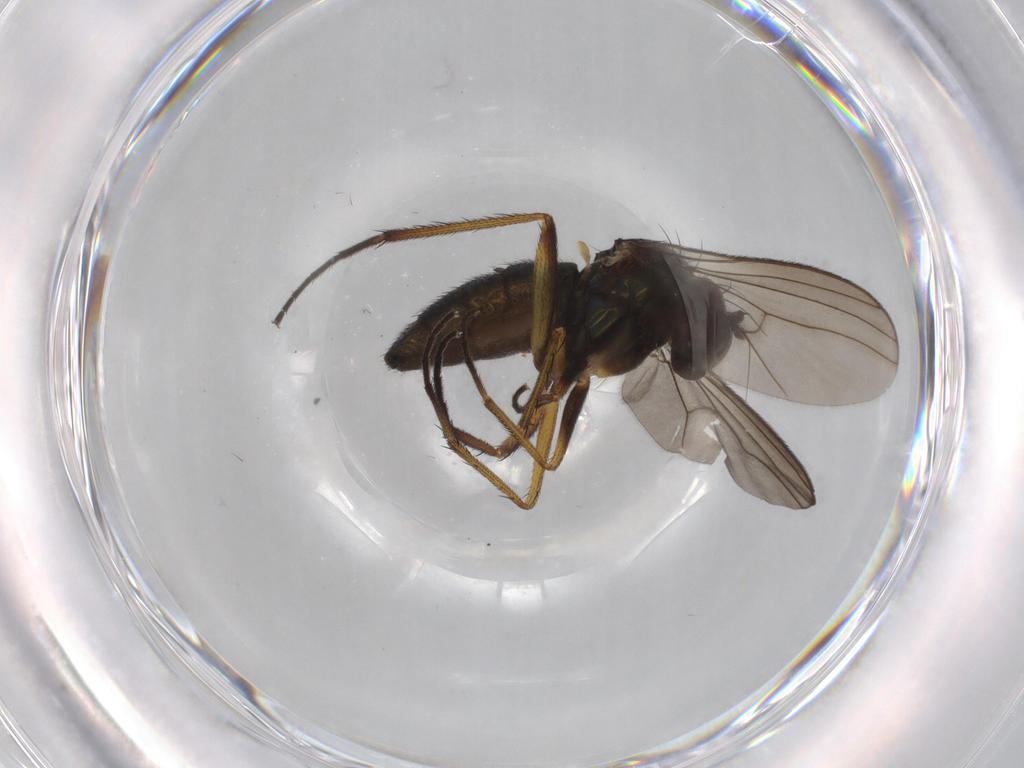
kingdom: Animalia
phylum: Arthropoda
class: Insecta
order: Diptera
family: Dolichopodidae
